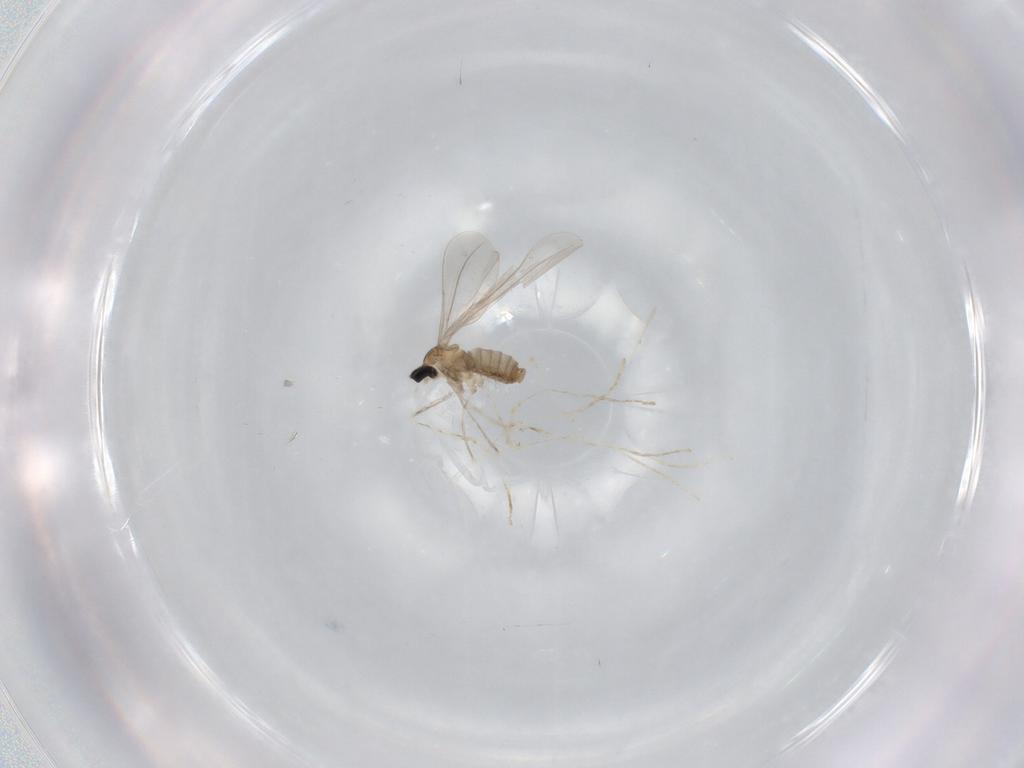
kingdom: Animalia
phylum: Arthropoda
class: Insecta
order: Diptera
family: Cecidomyiidae
